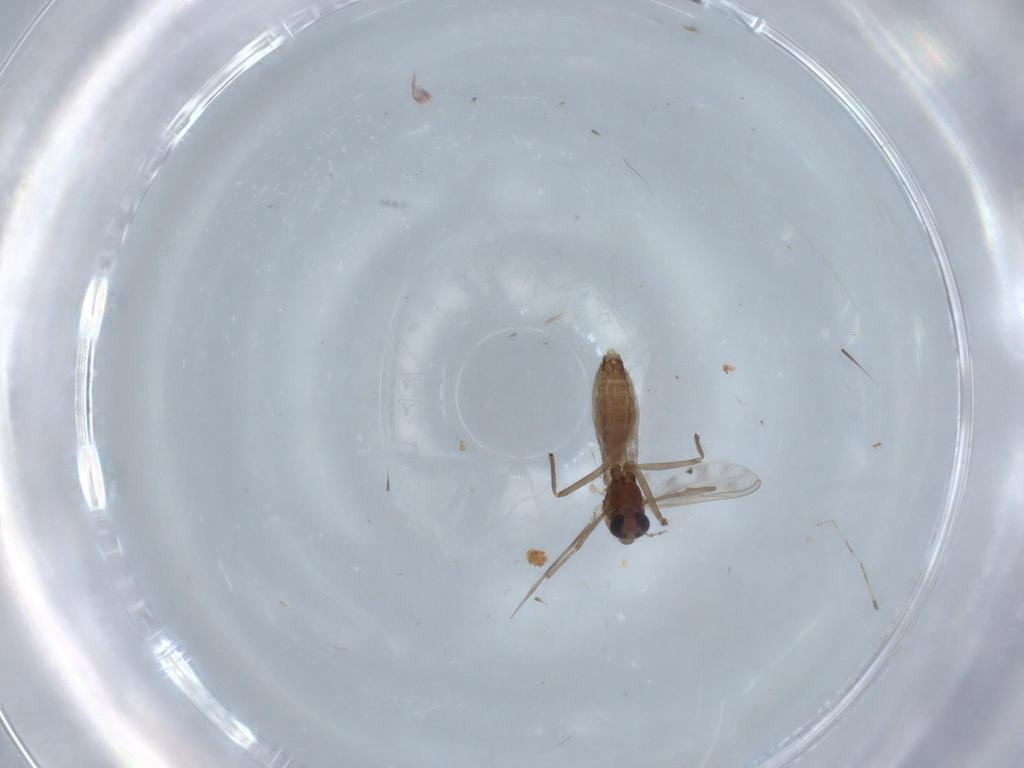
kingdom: Animalia
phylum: Arthropoda
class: Insecta
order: Diptera
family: Chironomidae
